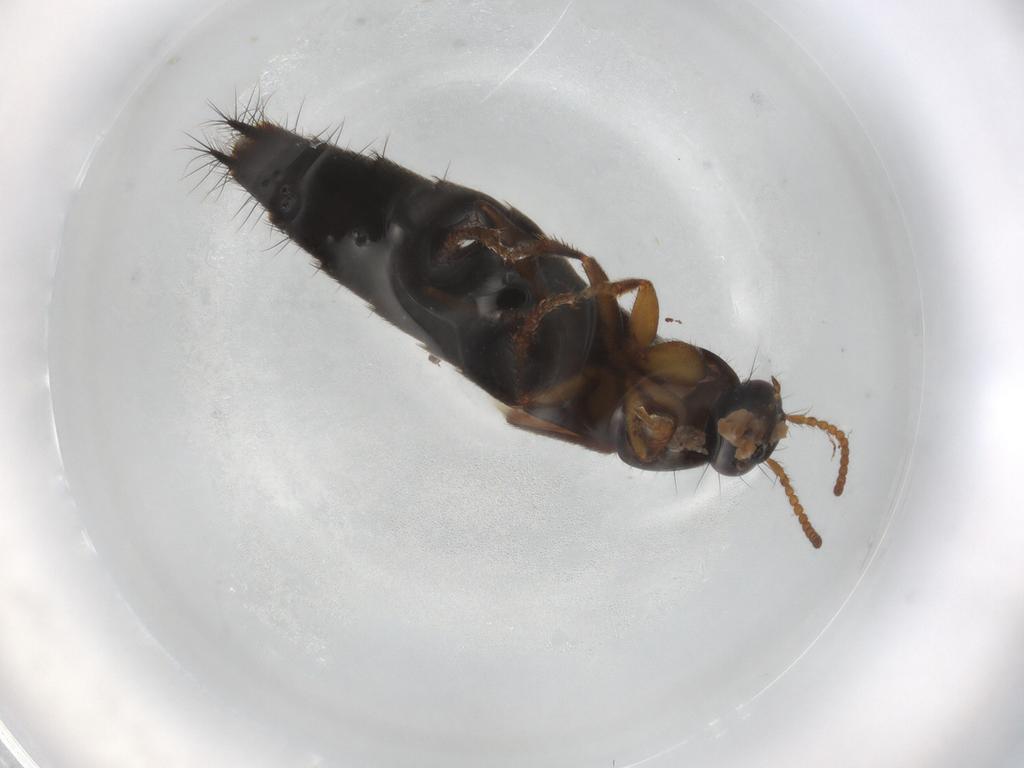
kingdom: Animalia
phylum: Arthropoda
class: Insecta
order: Coleoptera
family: Staphylinidae
